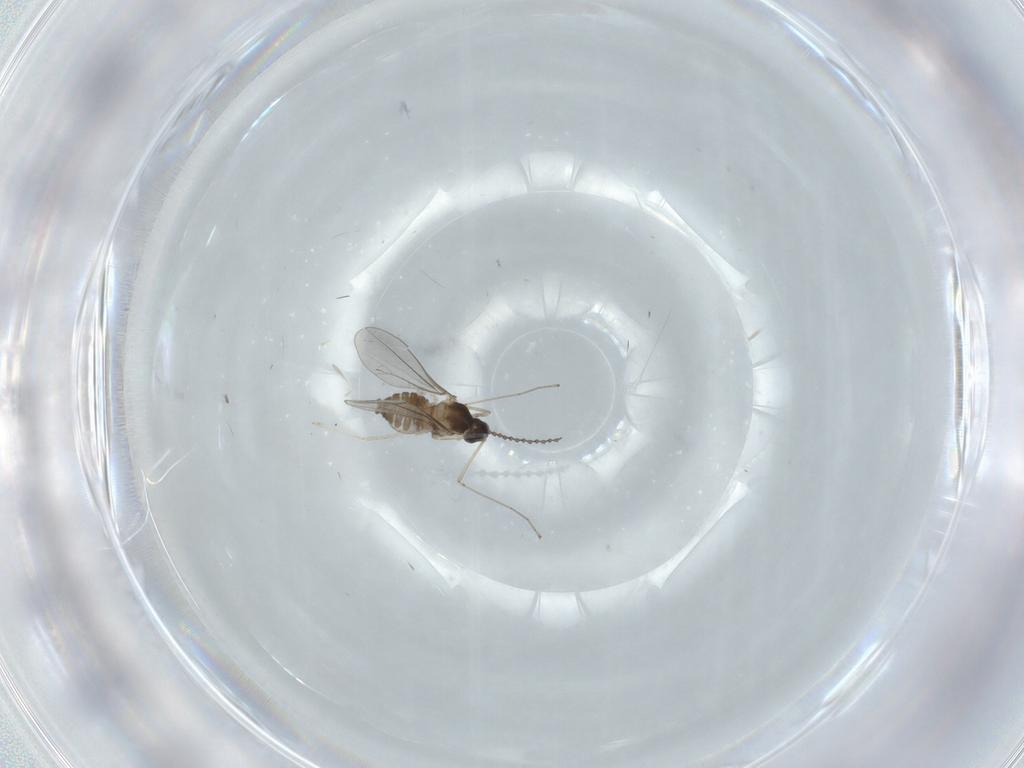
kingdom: Animalia
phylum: Arthropoda
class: Insecta
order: Diptera
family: Cecidomyiidae
